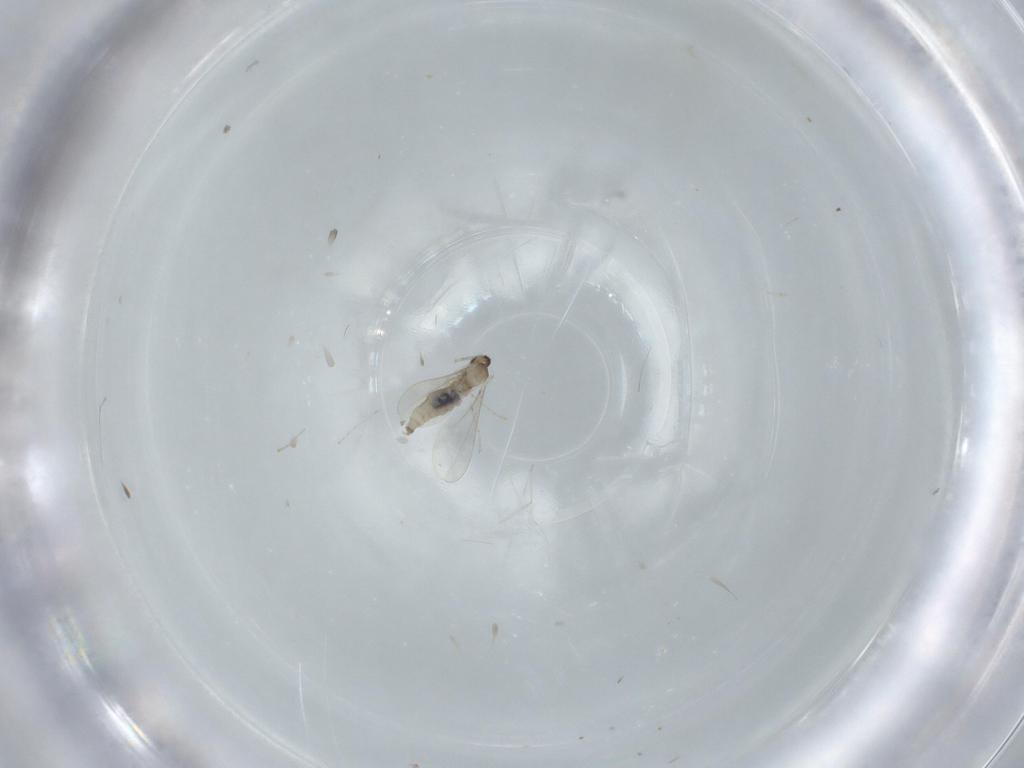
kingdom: Animalia
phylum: Arthropoda
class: Insecta
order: Diptera
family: Cecidomyiidae
